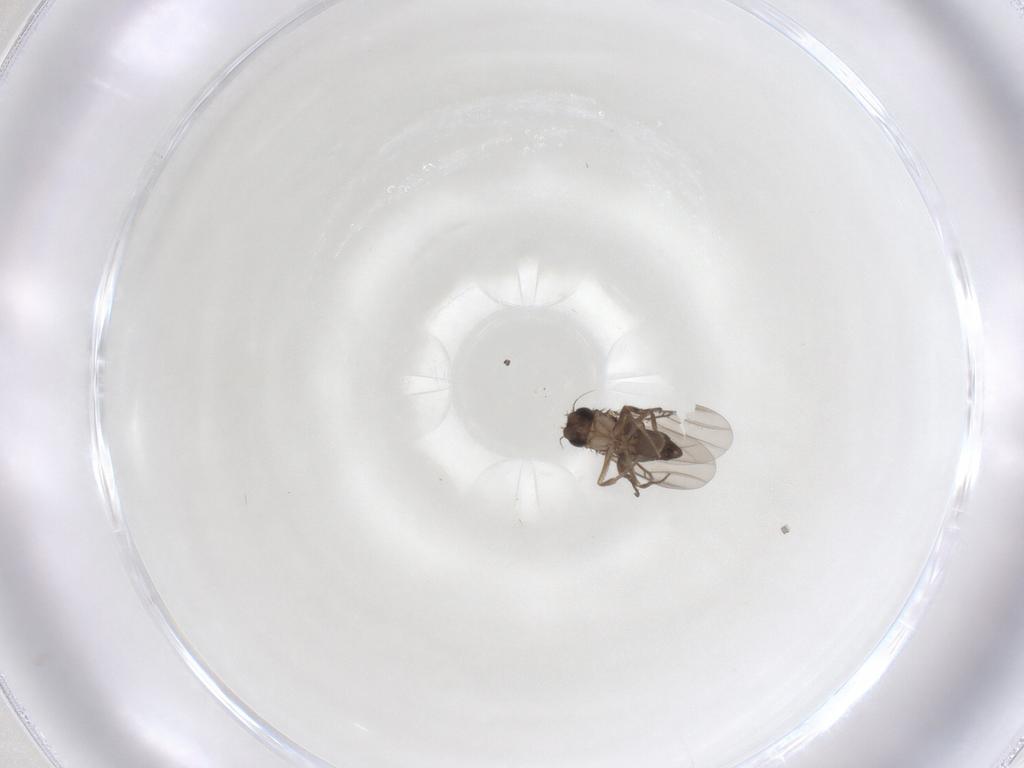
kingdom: Animalia
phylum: Arthropoda
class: Insecta
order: Diptera
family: Phoridae
